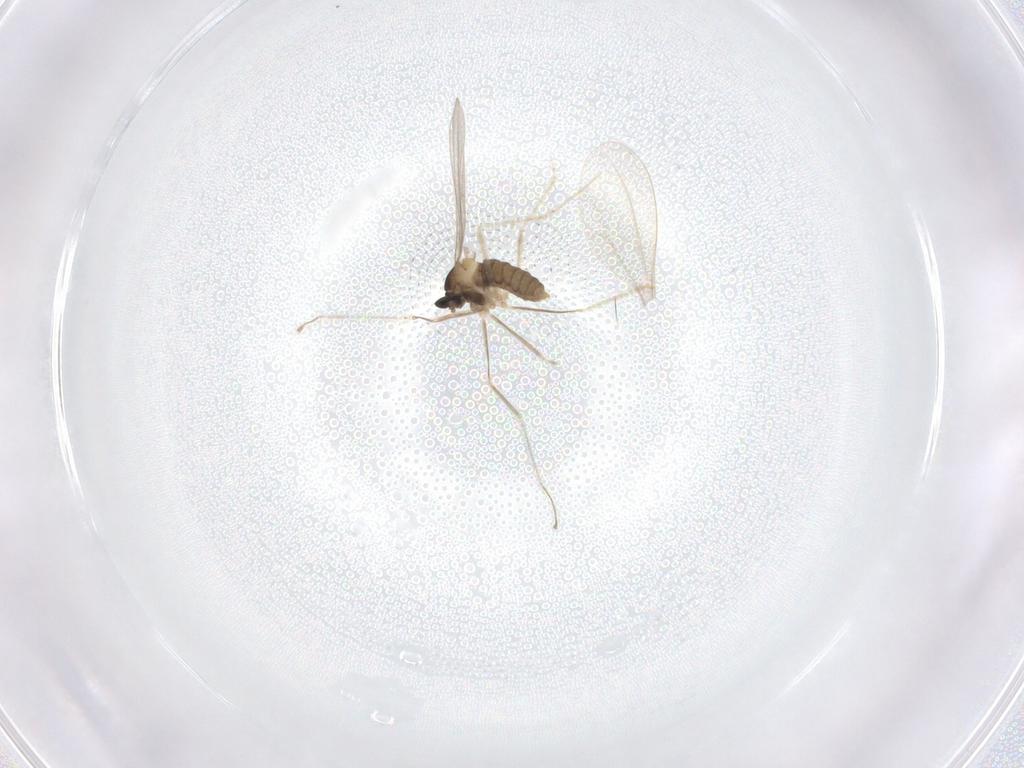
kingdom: Animalia
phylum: Arthropoda
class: Insecta
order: Diptera
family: Cecidomyiidae
